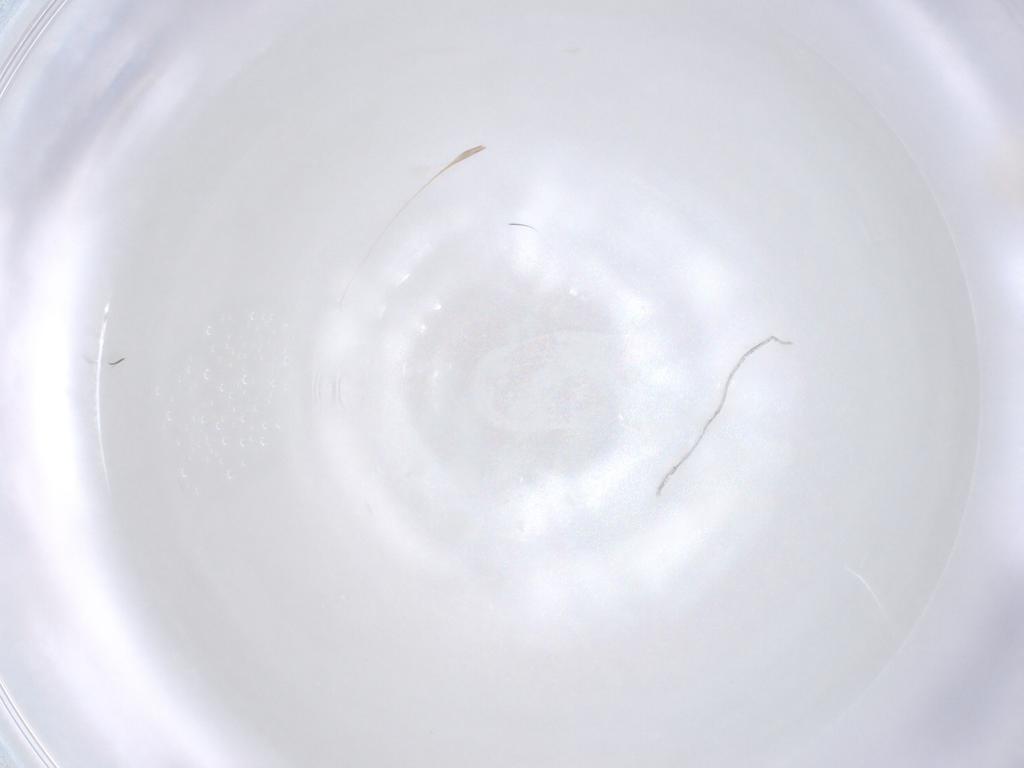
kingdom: Animalia
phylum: Arthropoda
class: Insecta
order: Diptera
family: Cecidomyiidae
